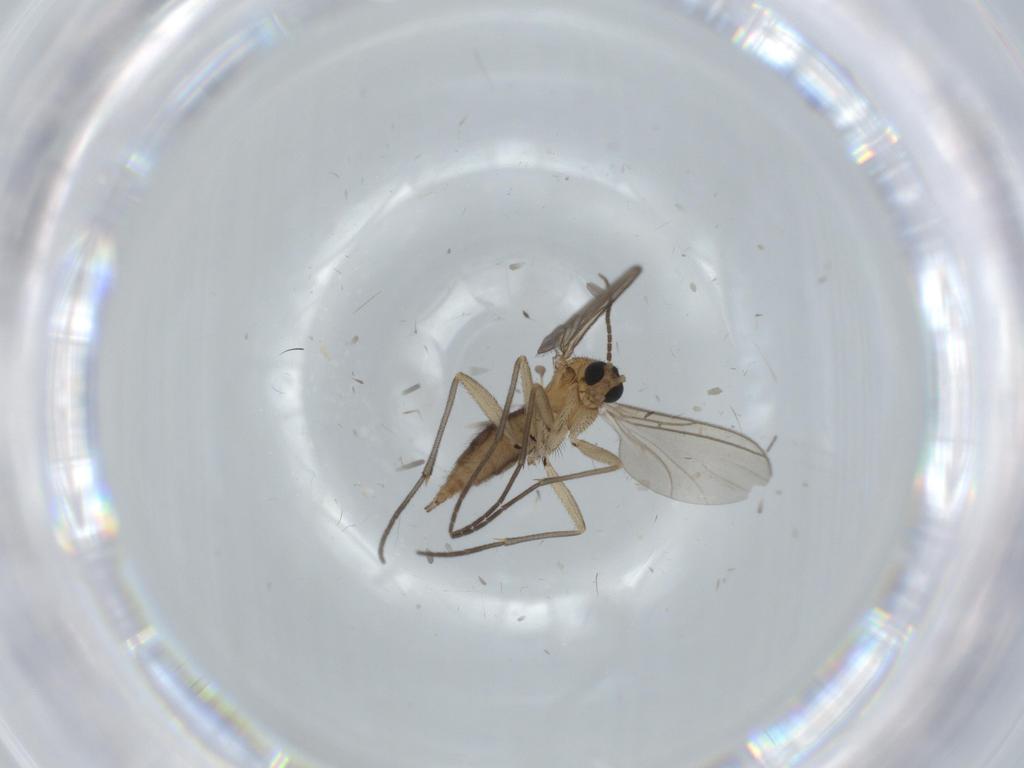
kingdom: Animalia
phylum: Arthropoda
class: Insecta
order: Diptera
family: Sciaridae
